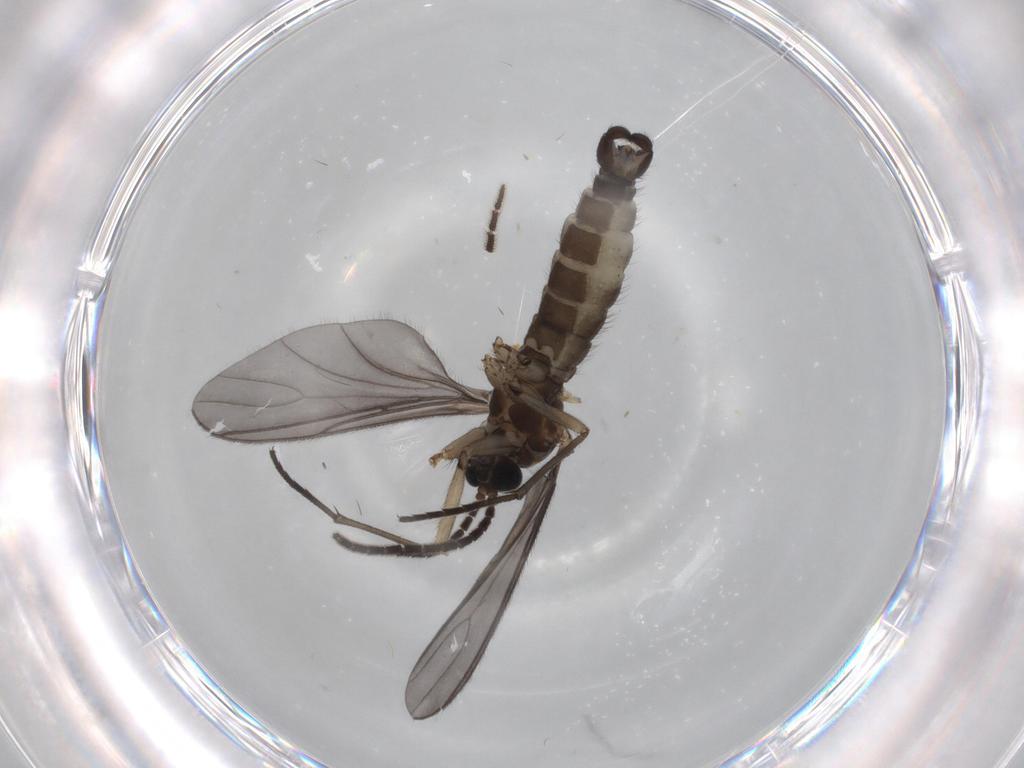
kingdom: Animalia
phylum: Arthropoda
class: Insecta
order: Diptera
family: Sciaridae
